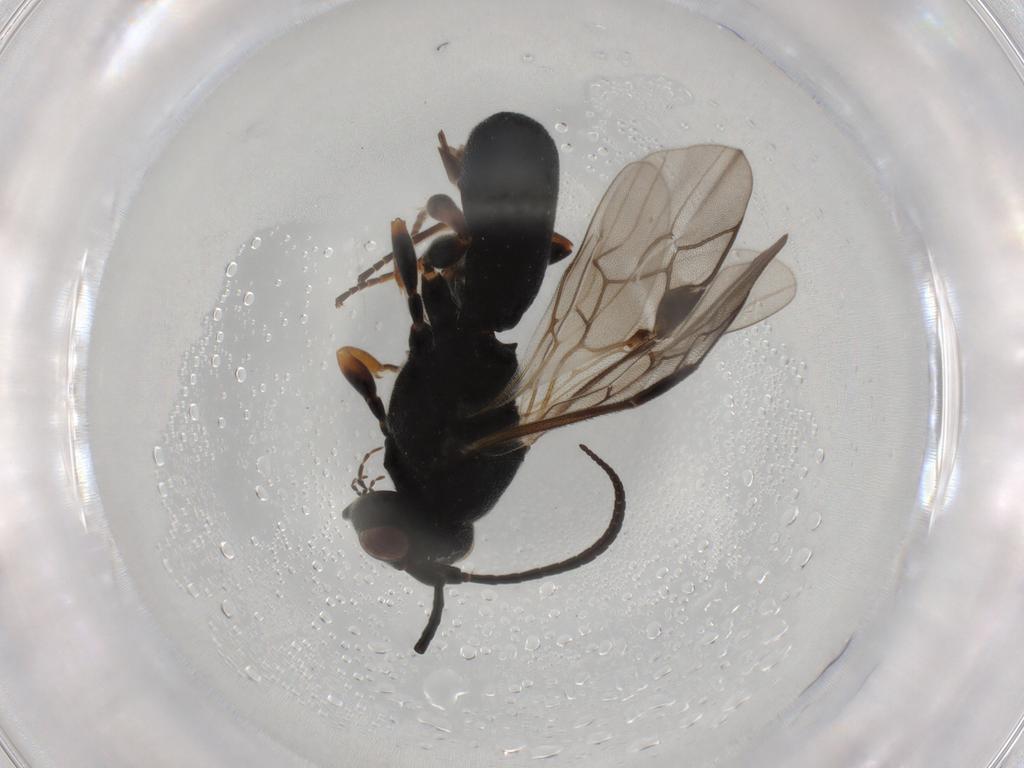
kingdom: Animalia
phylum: Arthropoda
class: Insecta
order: Hymenoptera
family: Braconidae
